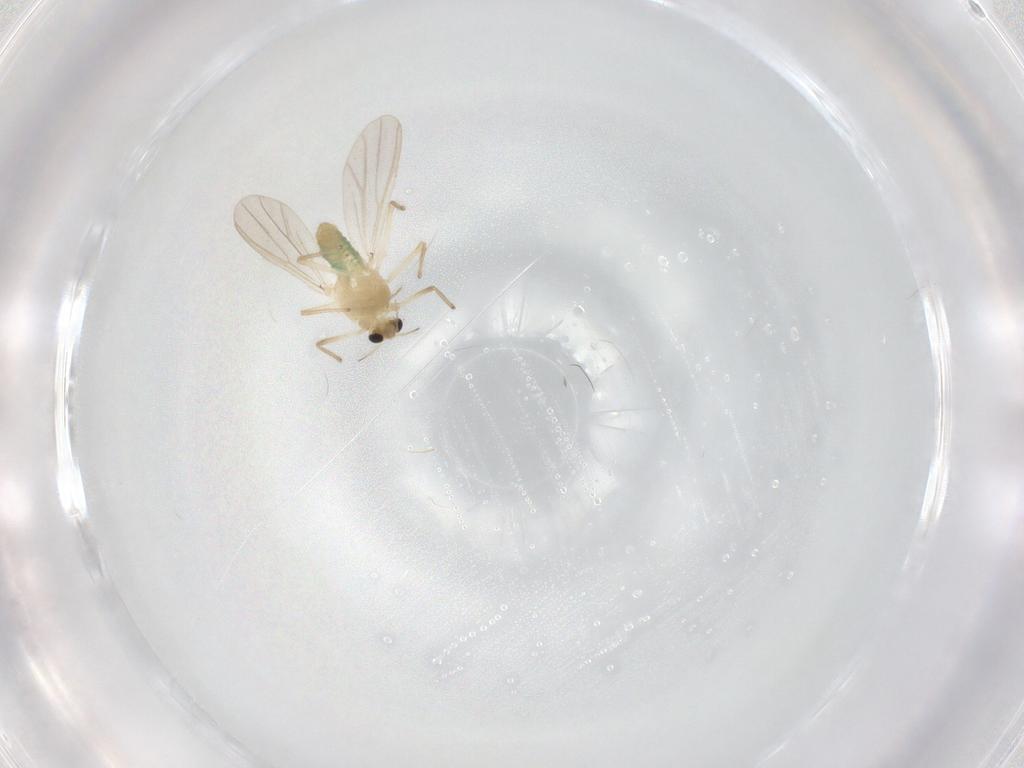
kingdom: Animalia
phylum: Arthropoda
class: Insecta
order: Diptera
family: Chironomidae
